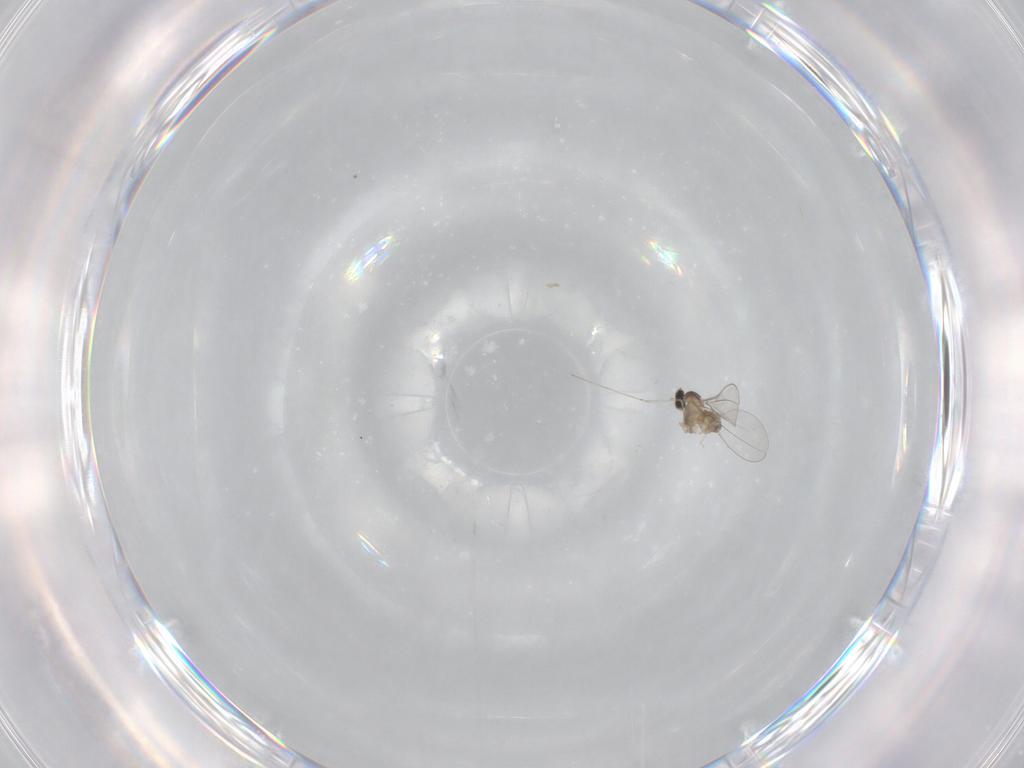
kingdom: Animalia
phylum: Arthropoda
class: Insecta
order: Diptera
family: Cecidomyiidae
